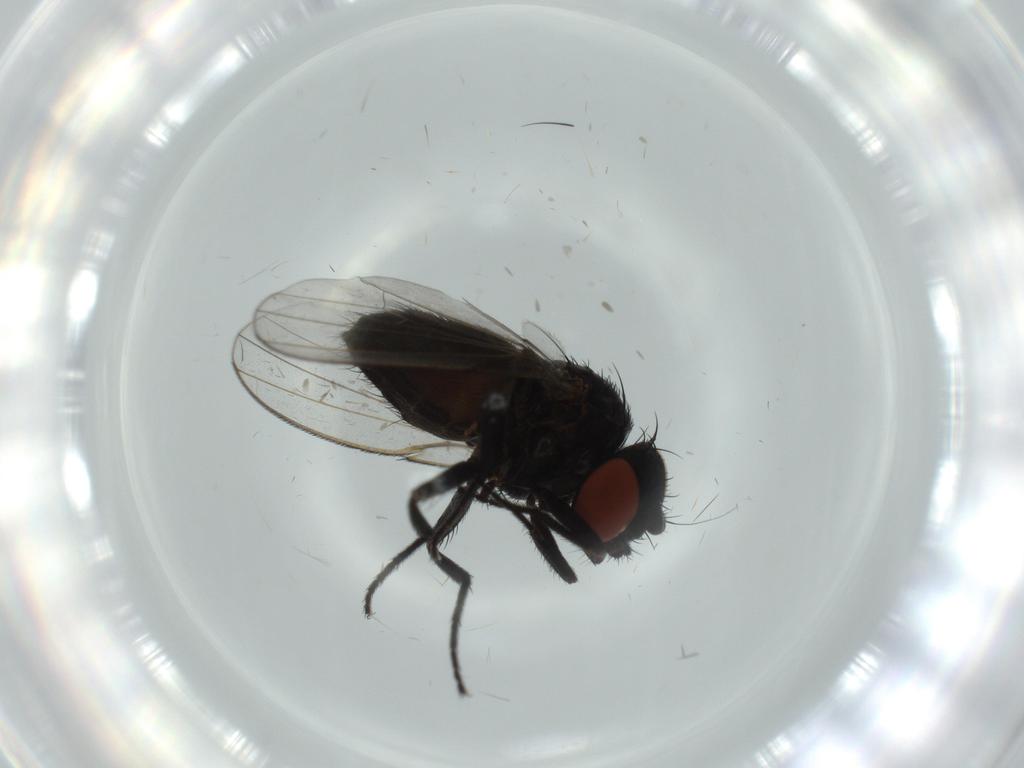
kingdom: Animalia
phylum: Arthropoda
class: Insecta
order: Diptera
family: Milichiidae
